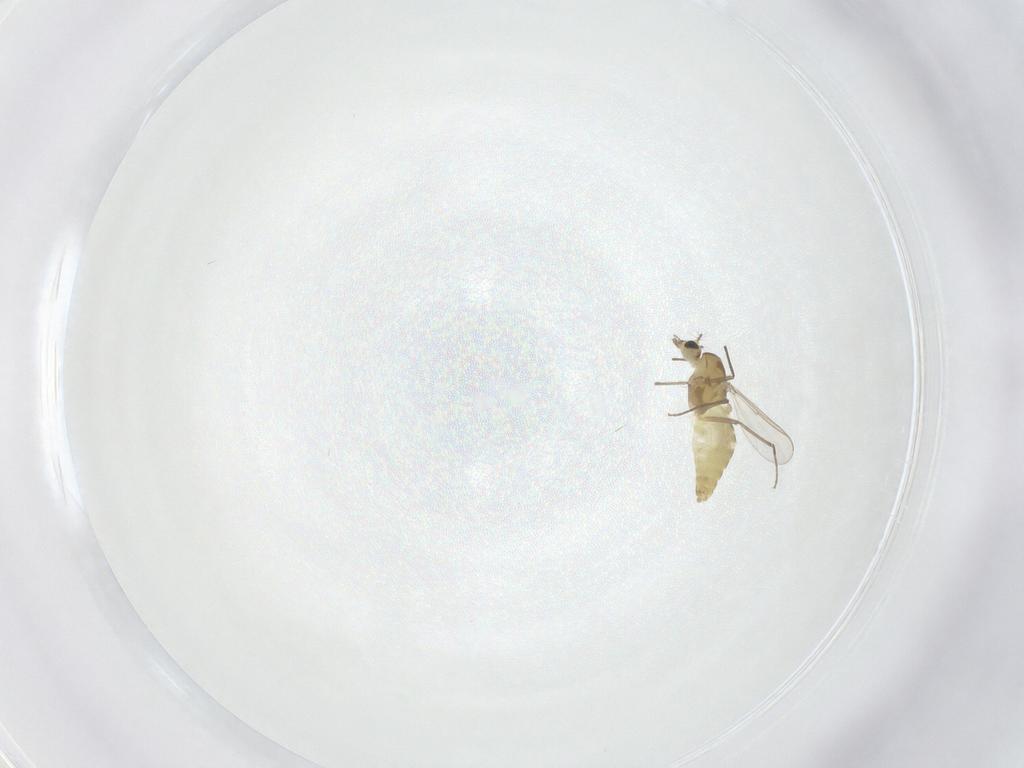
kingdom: Animalia
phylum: Arthropoda
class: Insecta
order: Diptera
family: Chironomidae
